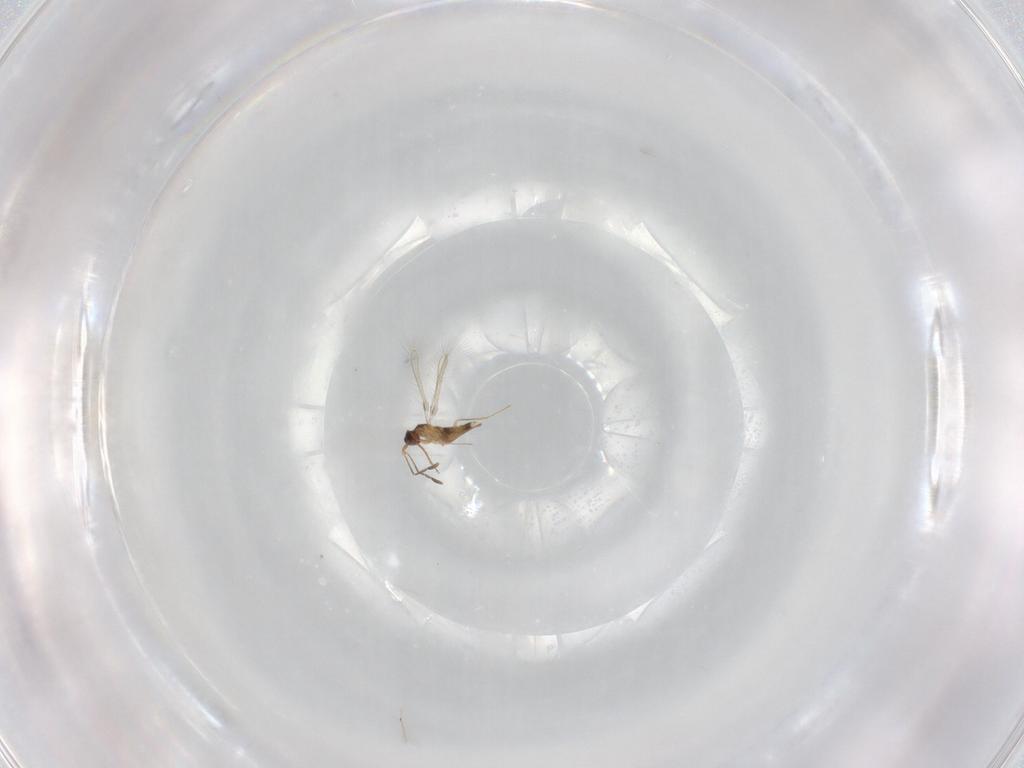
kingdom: Animalia
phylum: Arthropoda
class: Insecta
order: Hymenoptera
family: Mymaridae
